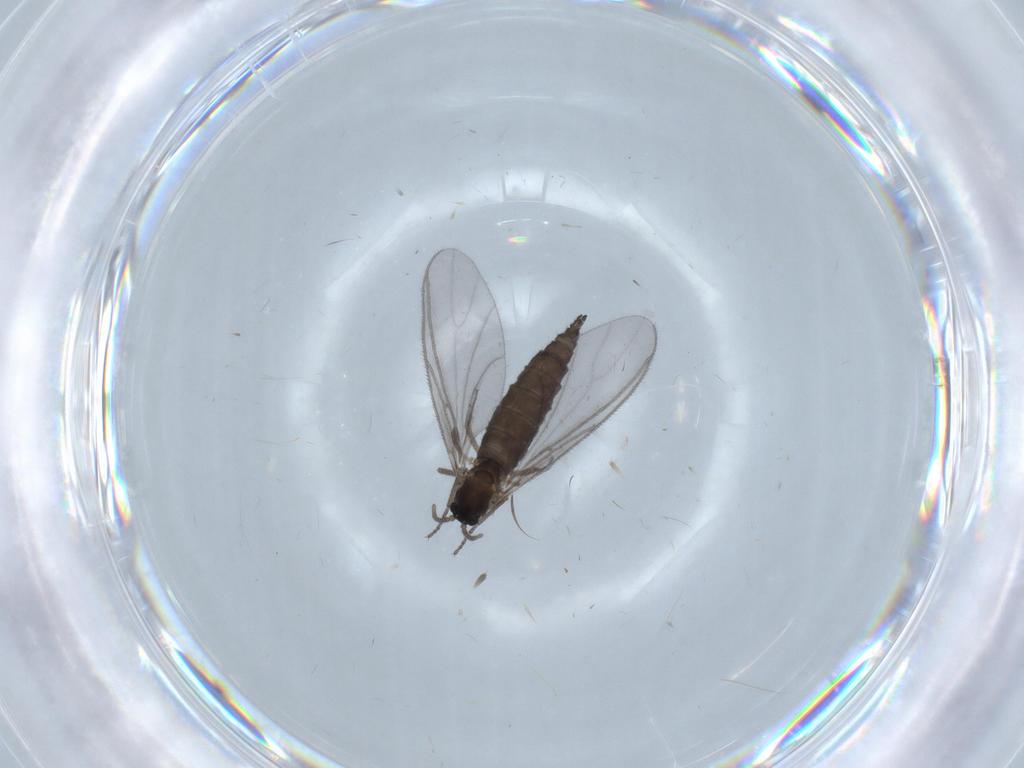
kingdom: Animalia
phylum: Arthropoda
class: Insecta
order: Diptera
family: Sciaridae
